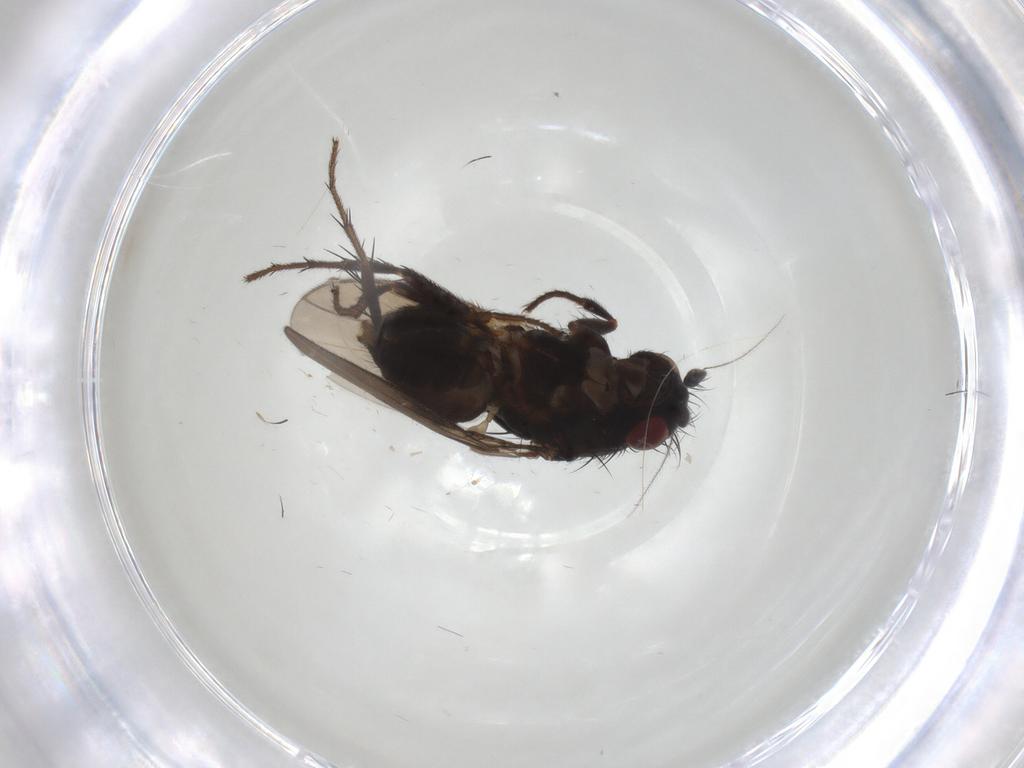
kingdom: Animalia
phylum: Arthropoda
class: Insecta
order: Diptera
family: Sphaeroceridae
